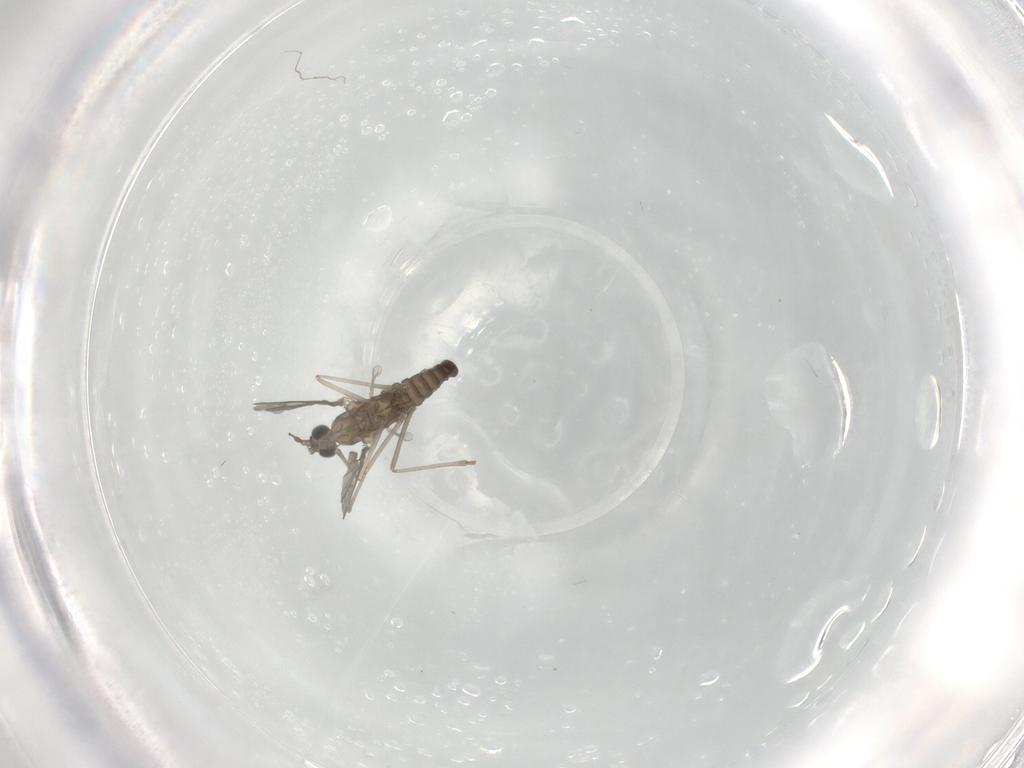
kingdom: Animalia
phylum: Arthropoda
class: Insecta
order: Diptera
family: Cecidomyiidae
